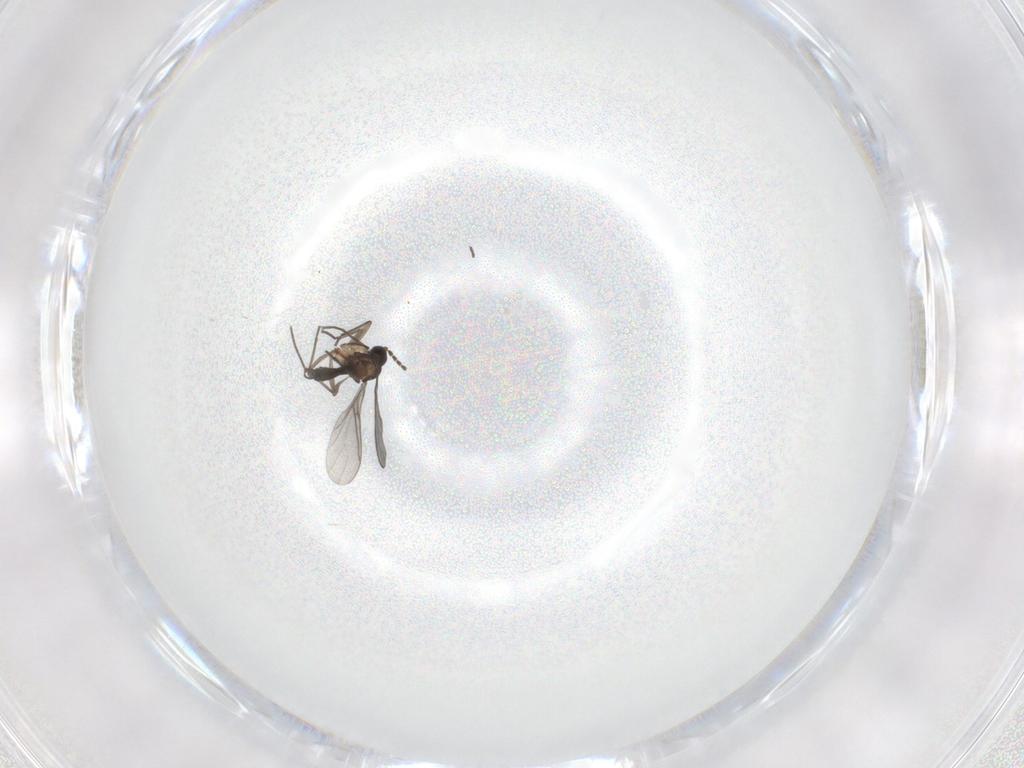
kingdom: Animalia
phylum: Arthropoda
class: Insecta
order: Diptera
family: Sciaridae
